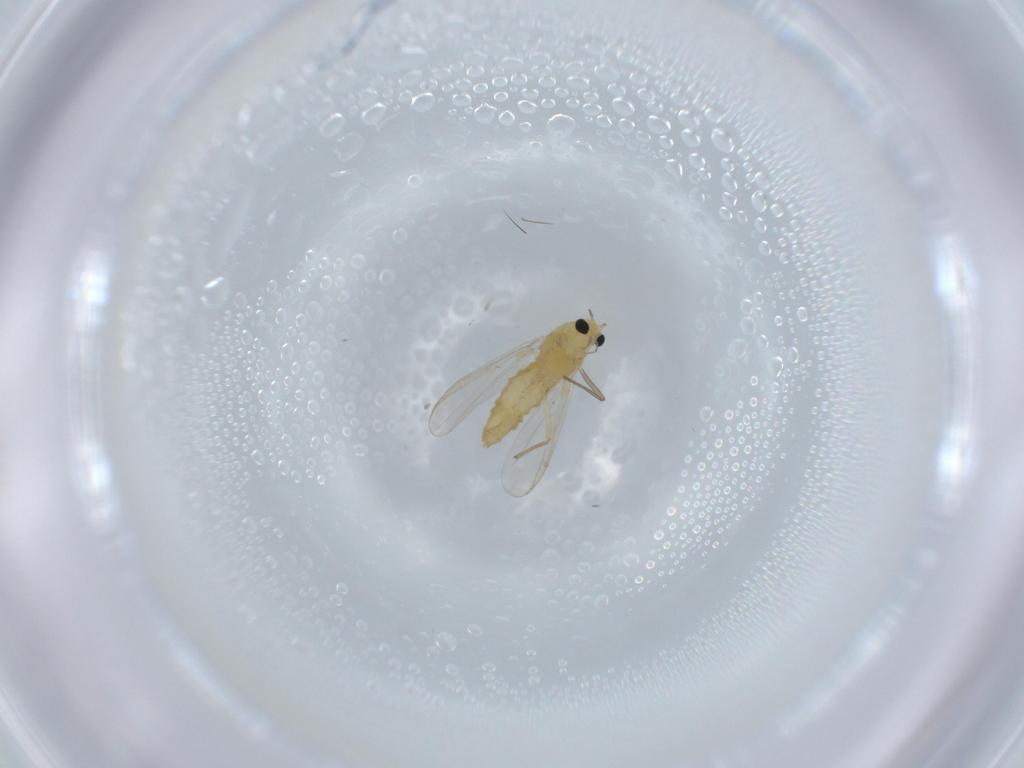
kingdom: Animalia
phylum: Arthropoda
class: Insecta
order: Diptera
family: Chironomidae
